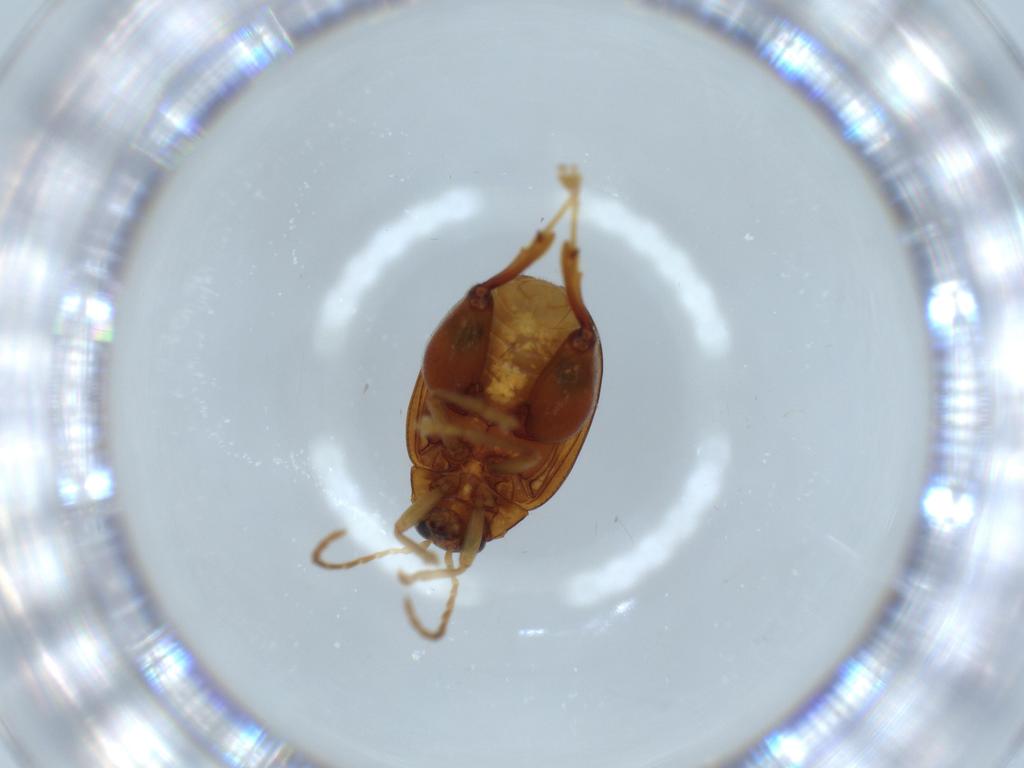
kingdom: Animalia
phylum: Arthropoda
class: Insecta
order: Coleoptera
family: Chrysomelidae
